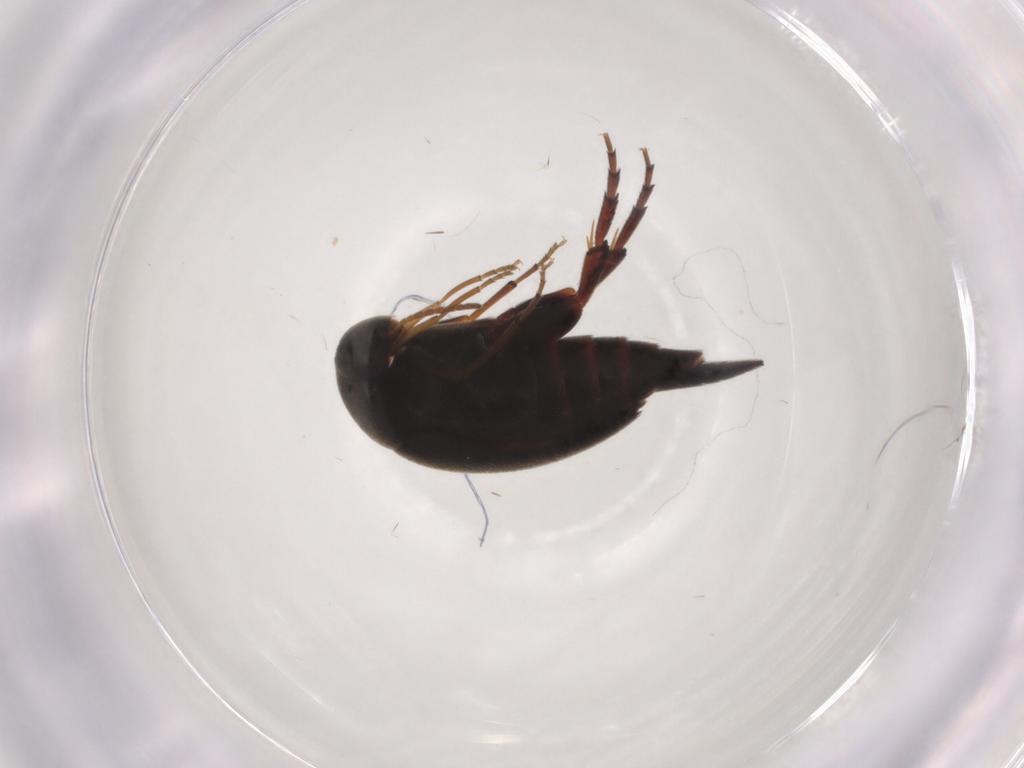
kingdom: Animalia
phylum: Arthropoda
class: Insecta
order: Coleoptera
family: Mordellidae
